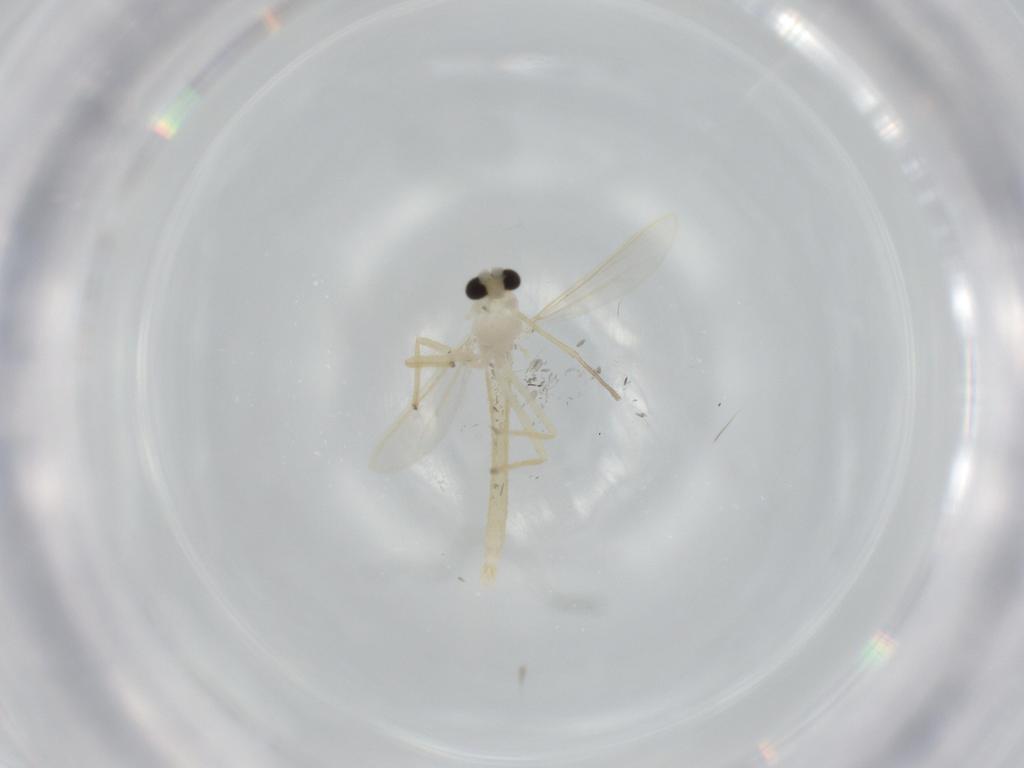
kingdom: Animalia
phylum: Arthropoda
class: Insecta
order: Diptera
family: Chironomidae
